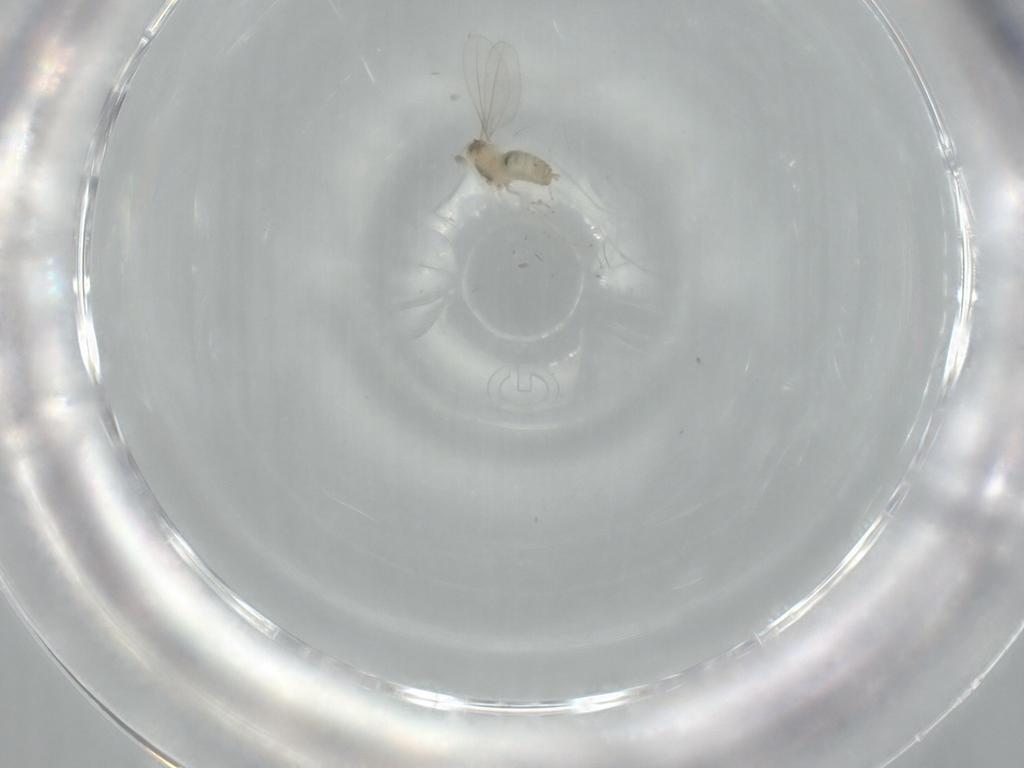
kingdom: Animalia
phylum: Arthropoda
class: Insecta
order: Diptera
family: Cecidomyiidae
